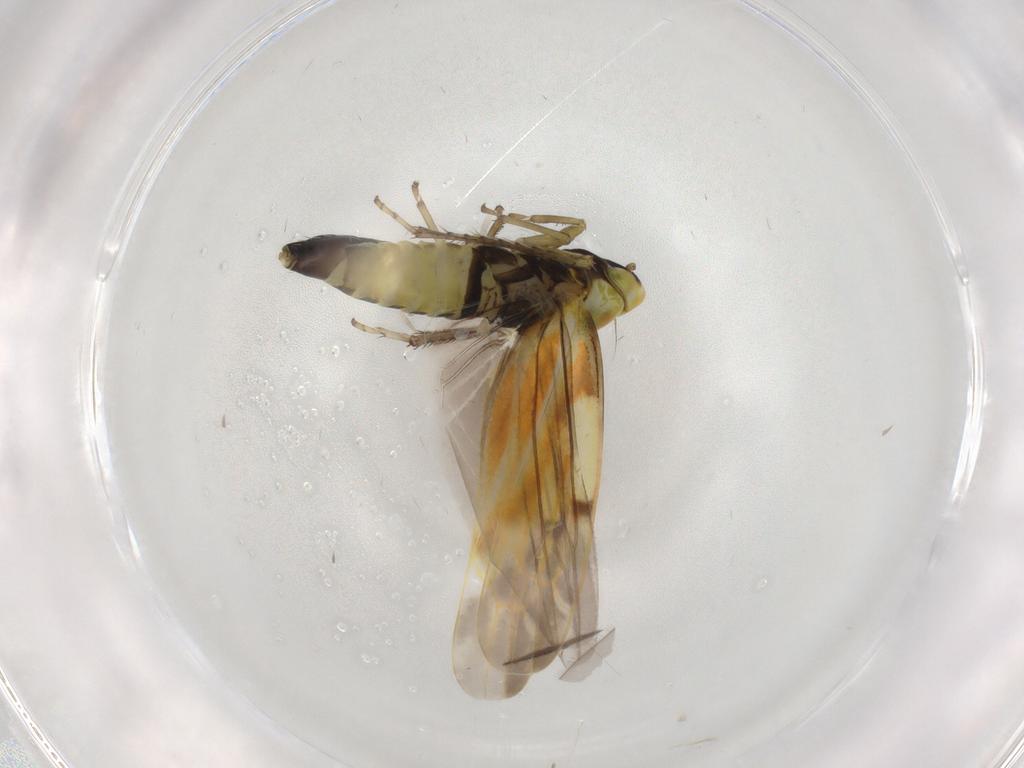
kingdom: Animalia
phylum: Arthropoda
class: Insecta
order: Hemiptera
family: Cicadellidae
